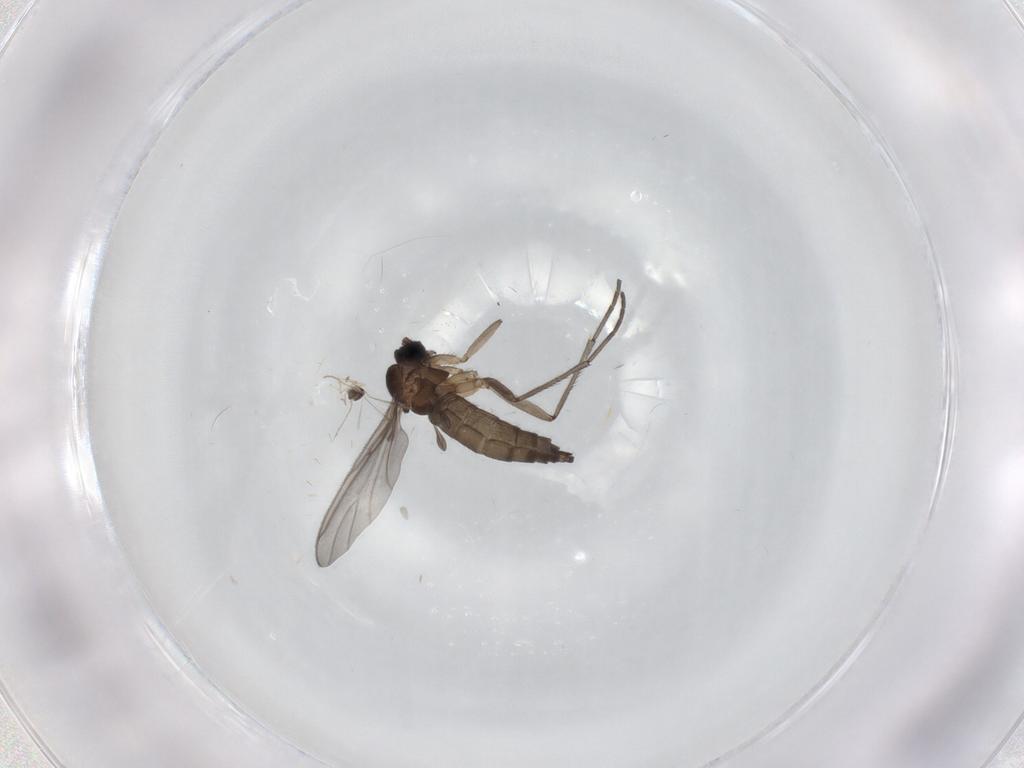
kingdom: Animalia
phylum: Arthropoda
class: Insecta
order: Diptera
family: Sciaridae
